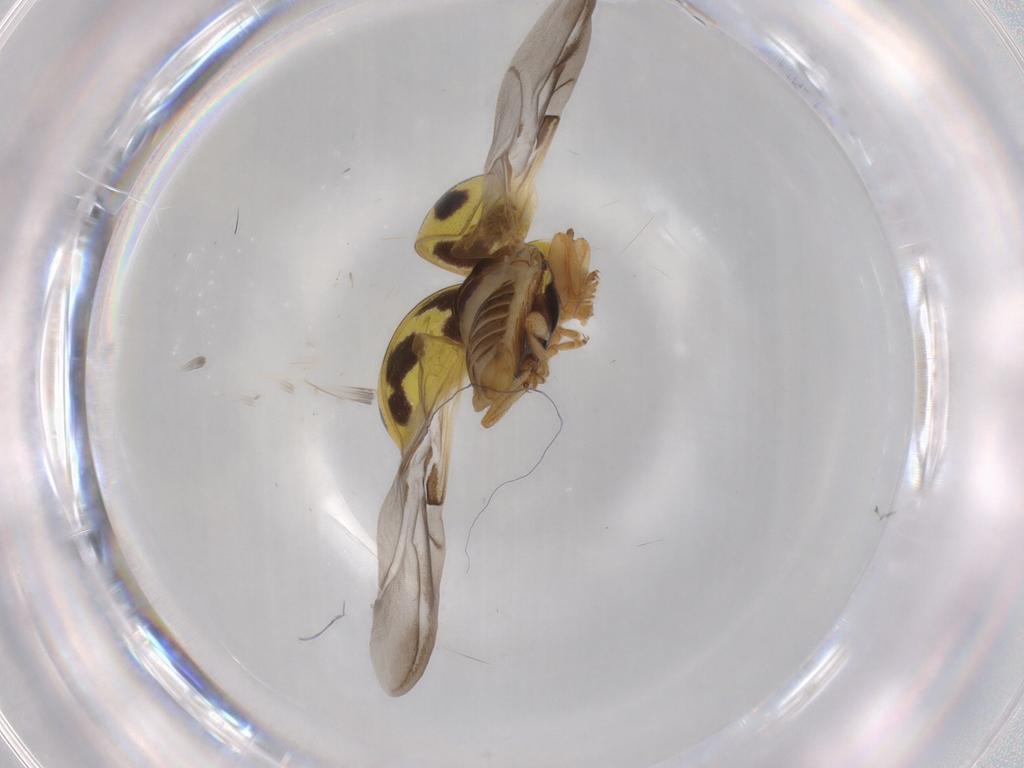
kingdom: Animalia
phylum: Arthropoda
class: Insecta
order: Coleoptera
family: Coccinellidae
